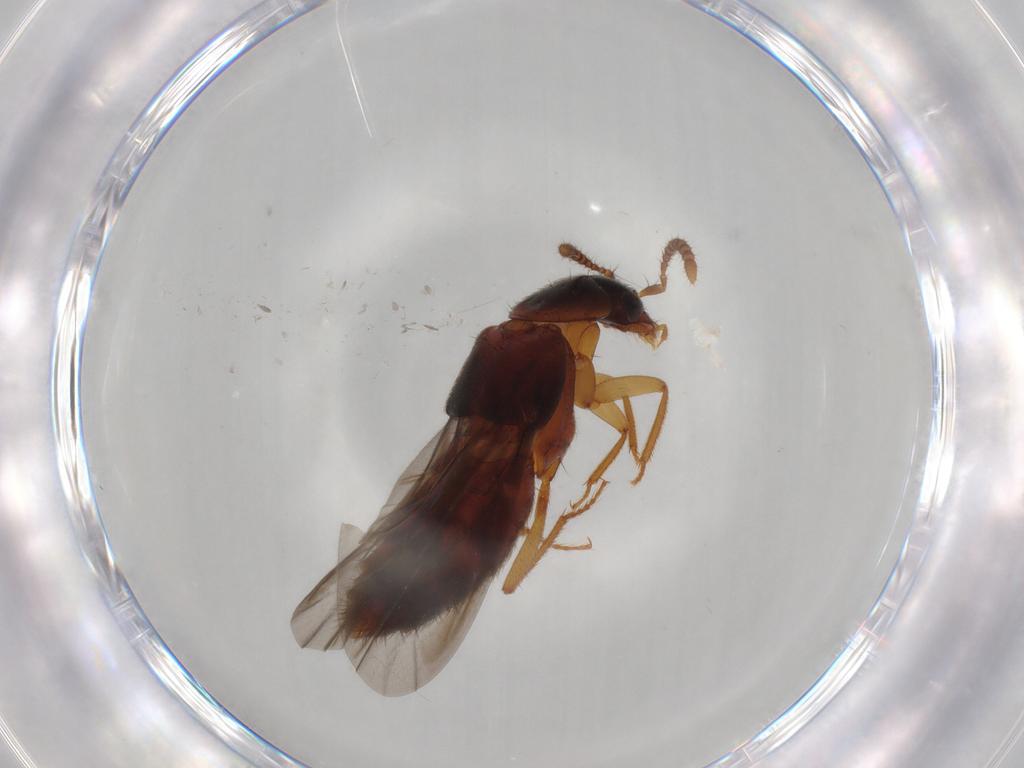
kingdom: Animalia
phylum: Arthropoda
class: Insecta
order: Coleoptera
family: Staphylinidae
